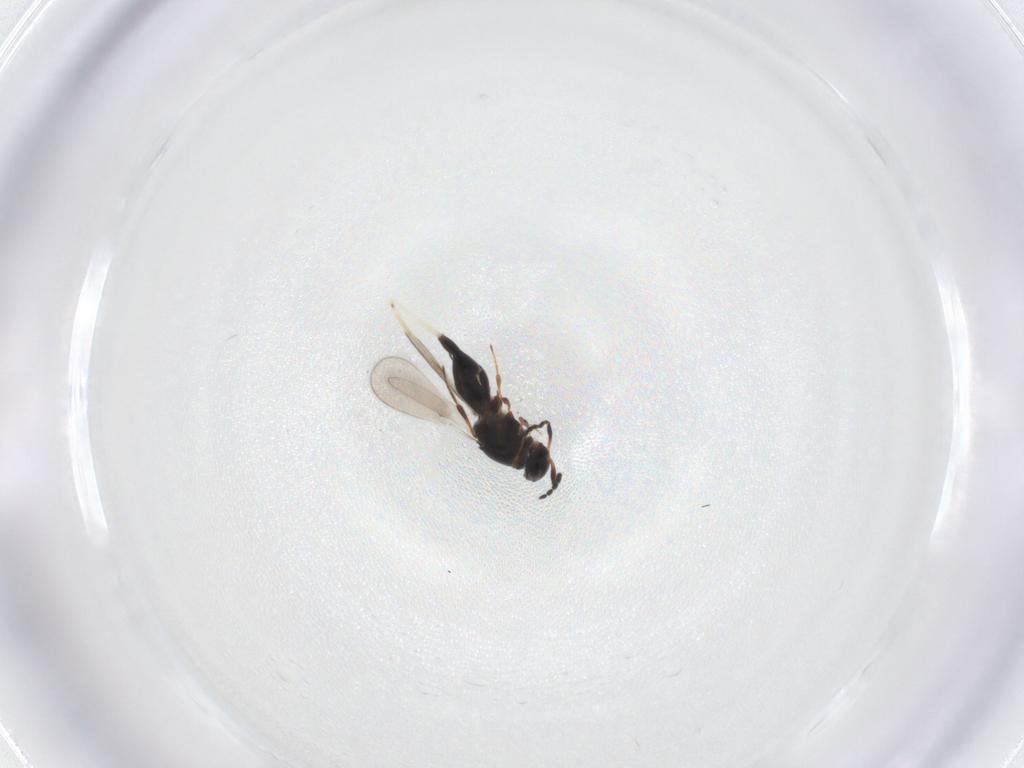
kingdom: Animalia
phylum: Arthropoda
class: Insecta
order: Hymenoptera
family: Platygastridae
